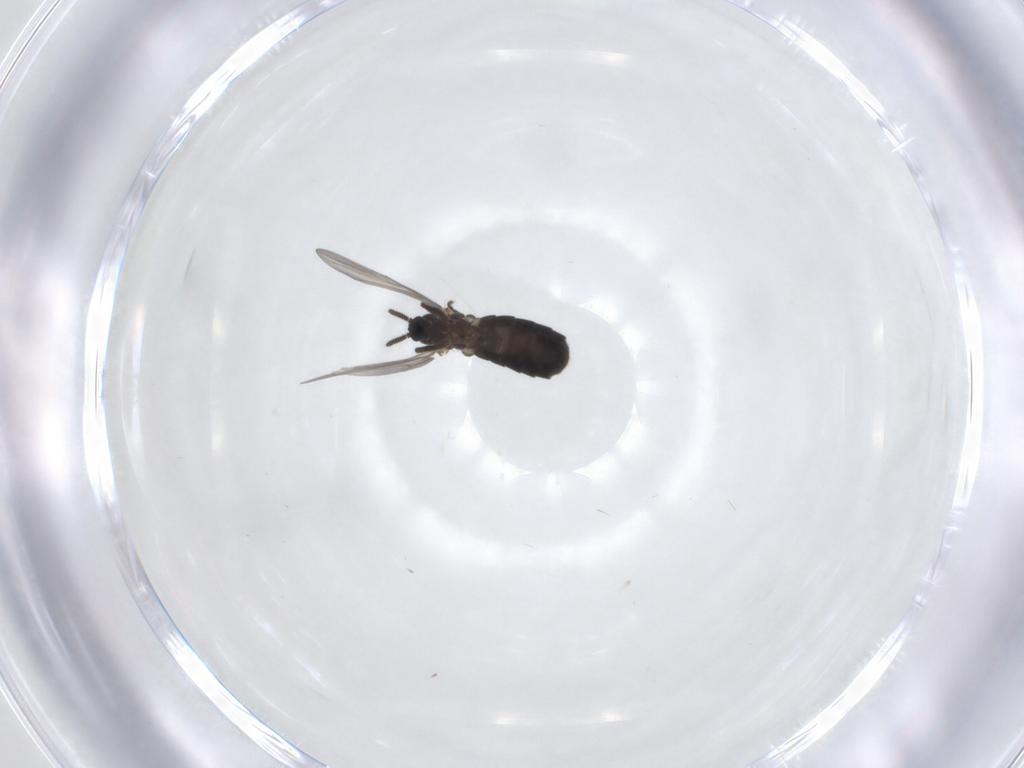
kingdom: Animalia
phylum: Arthropoda
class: Insecta
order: Diptera
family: Scatopsidae
